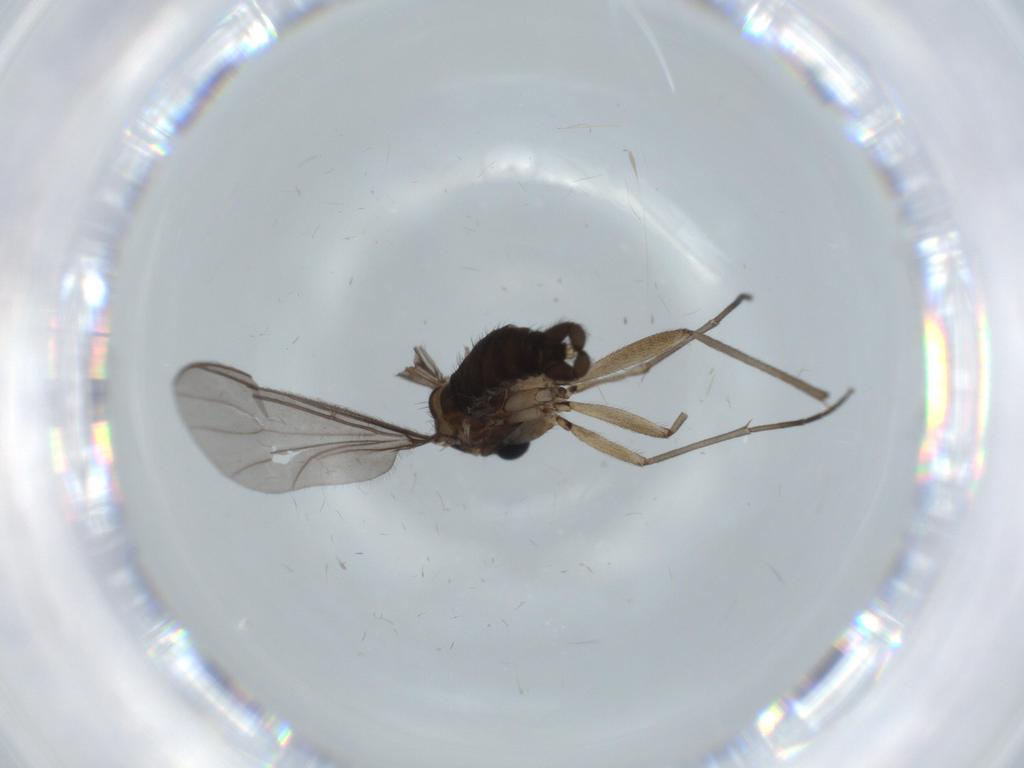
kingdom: Animalia
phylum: Arthropoda
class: Insecta
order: Diptera
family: Sciaridae
